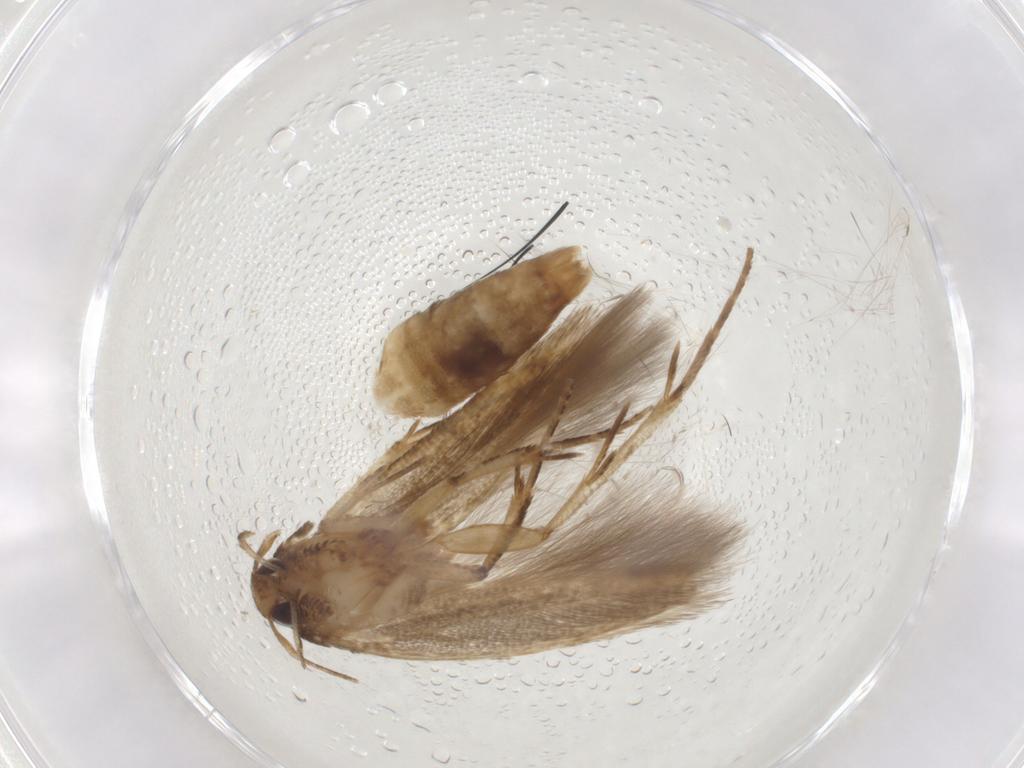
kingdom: Animalia
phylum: Arthropoda
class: Insecta
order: Lepidoptera
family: Cosmopterigidae
